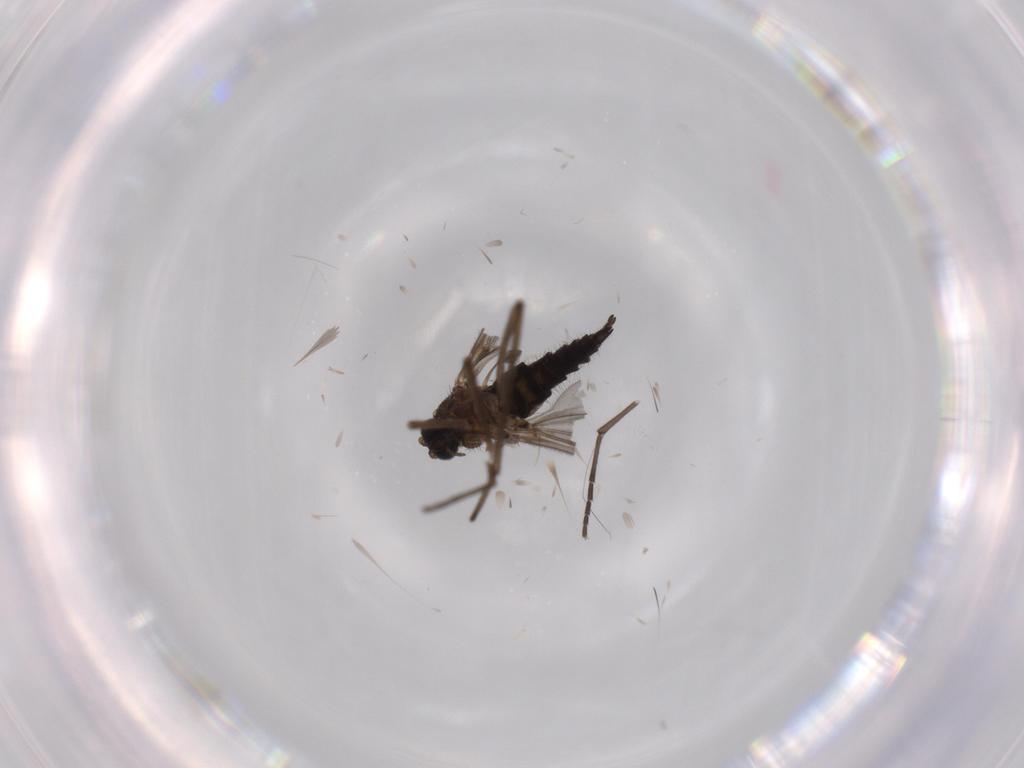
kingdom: Animalia
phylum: Arthropoda
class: Insecta
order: Diptera
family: Sciaridae
